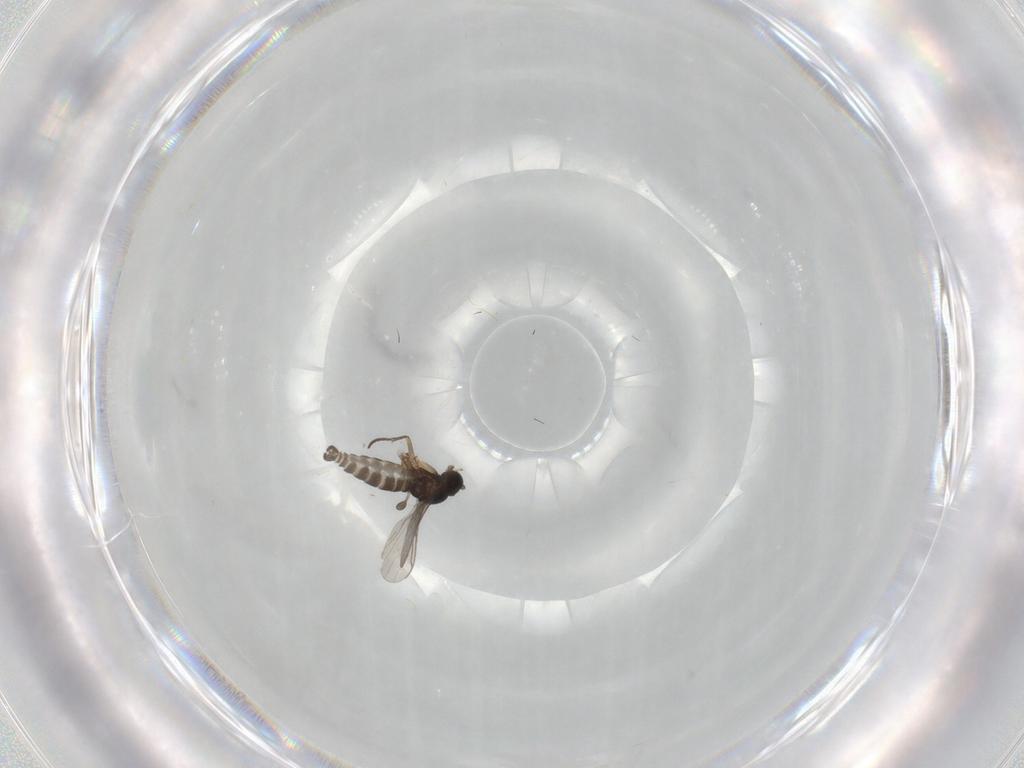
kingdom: Animalia
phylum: Arthropoda
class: Insecta
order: Diptera
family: Sciaridae
